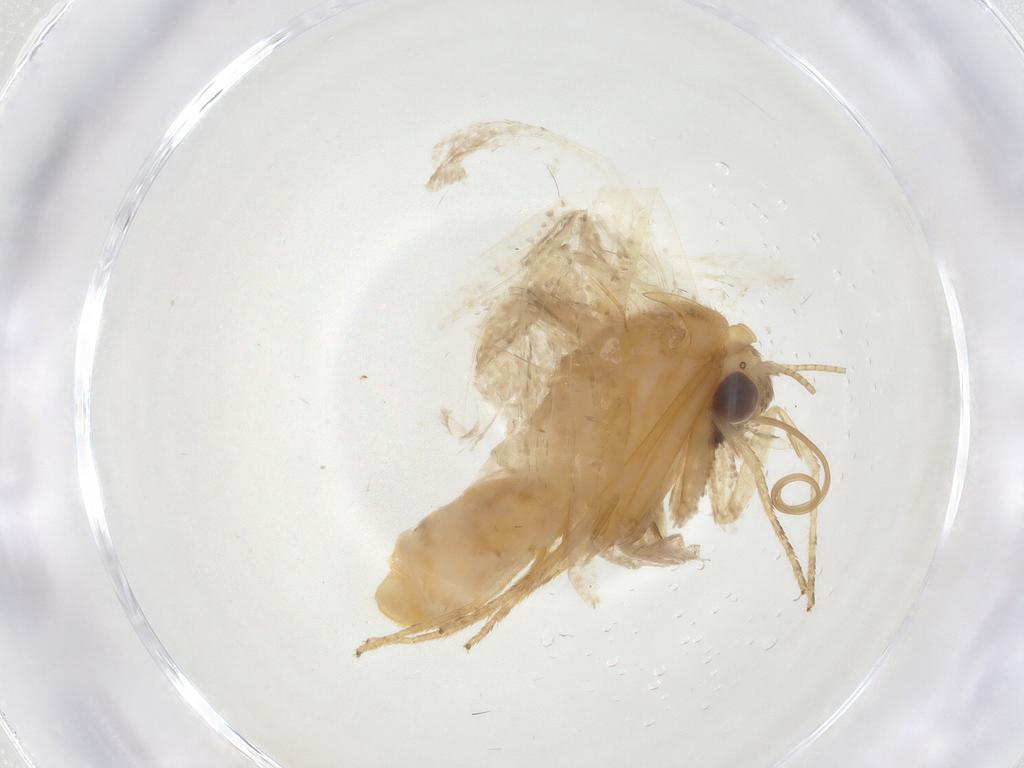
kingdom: Animalia
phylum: Arthropoda
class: Insecta
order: Lepidoptera
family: Erebidae
